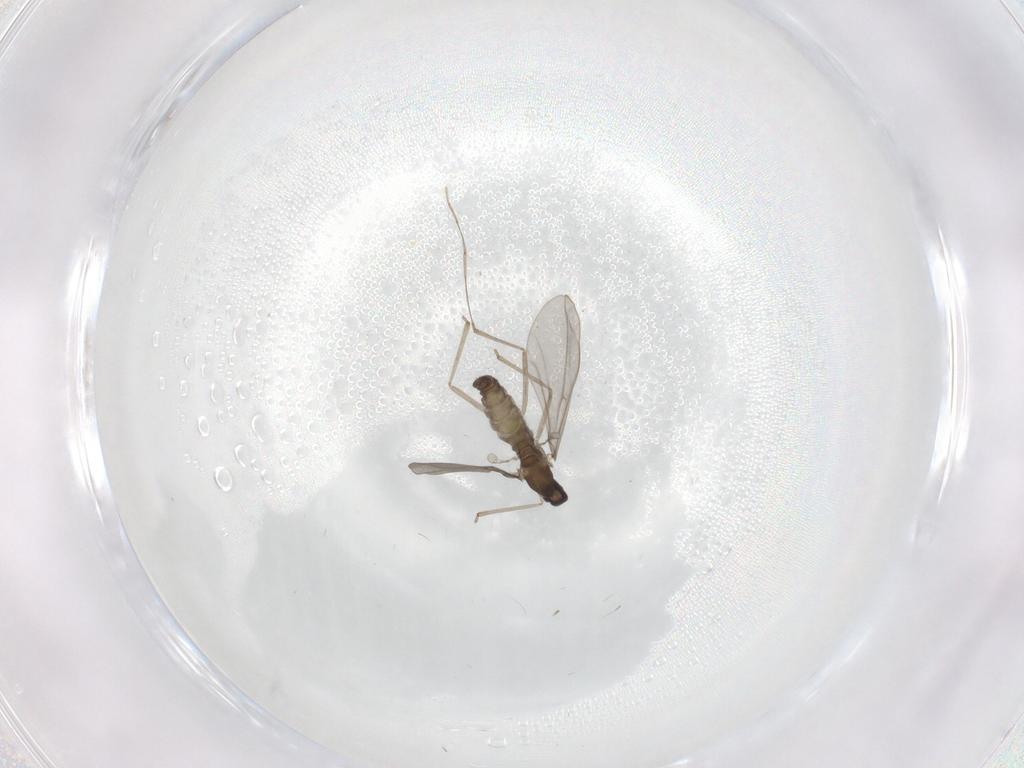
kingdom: Animalia
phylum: Arthropoda
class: Insecta
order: Diptera
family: Cecidomyiidae
